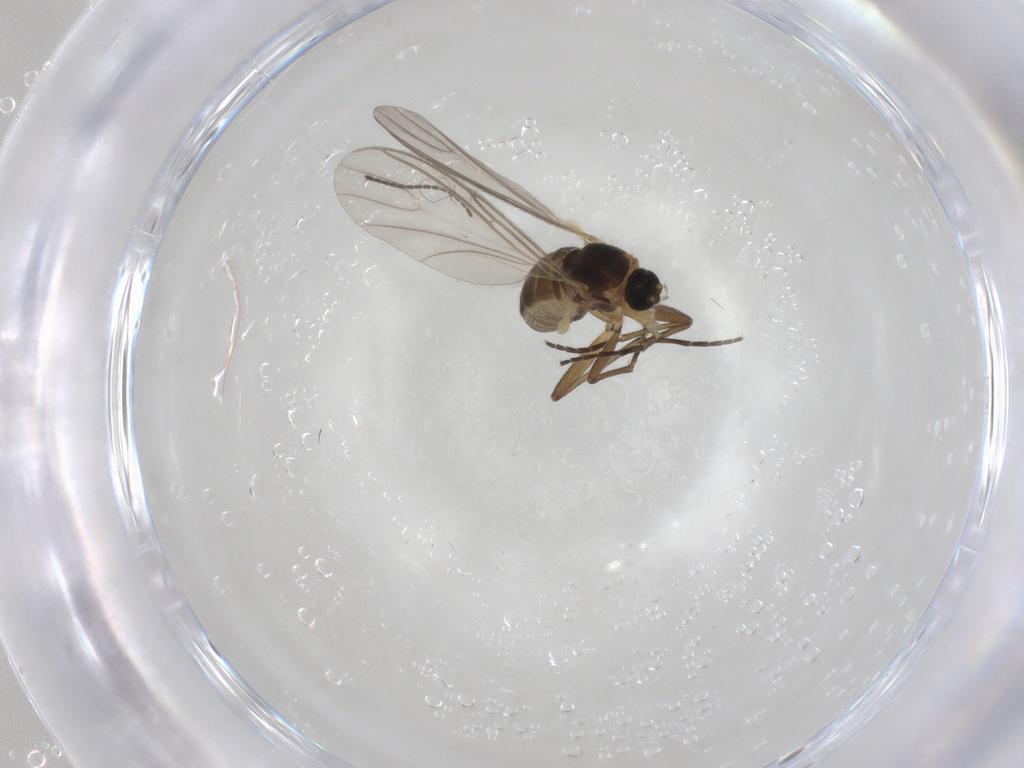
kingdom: Animalia
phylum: Arthropoda
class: Insecta
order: Diptera
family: Sciaridae
